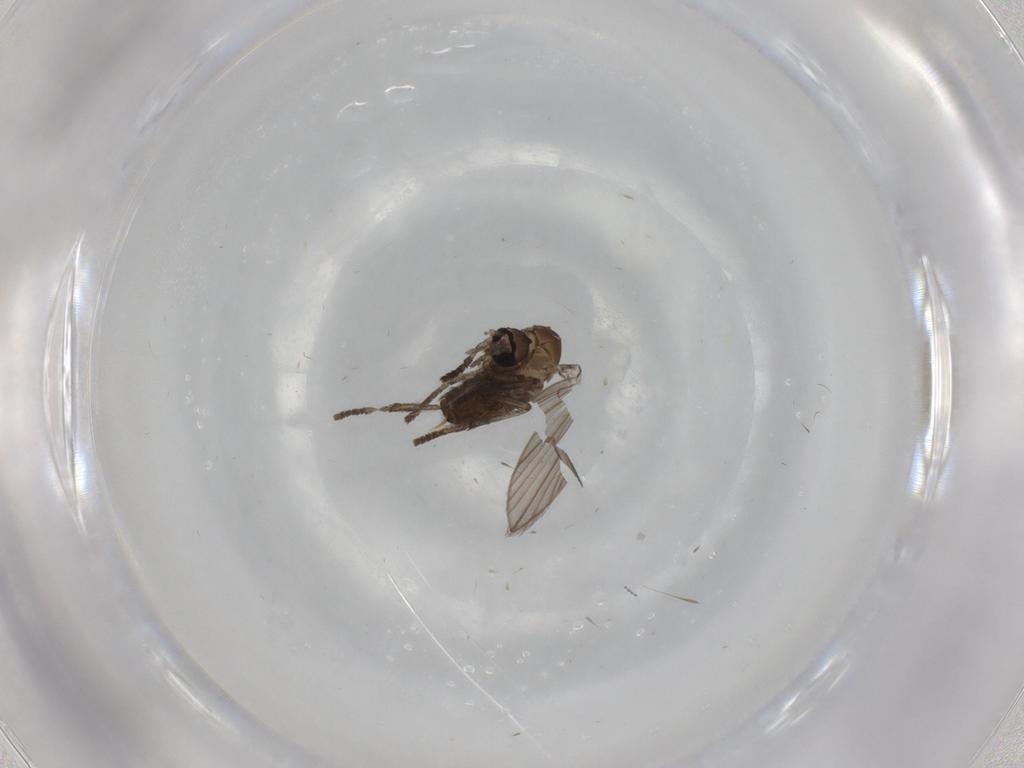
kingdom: Animalia
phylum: Arthropoda
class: Insecta
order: Diptera
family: Psychodidae
